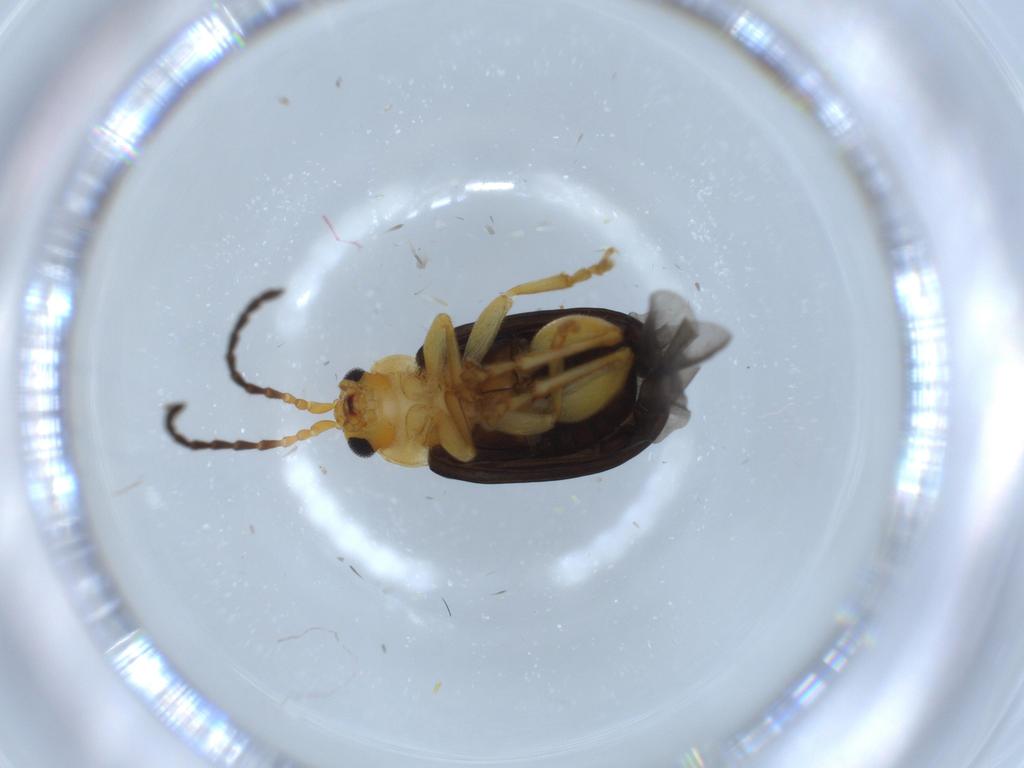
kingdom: Animalia
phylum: Arthropoda
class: Insecta
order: Coleoptera
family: Chrysomelidae
